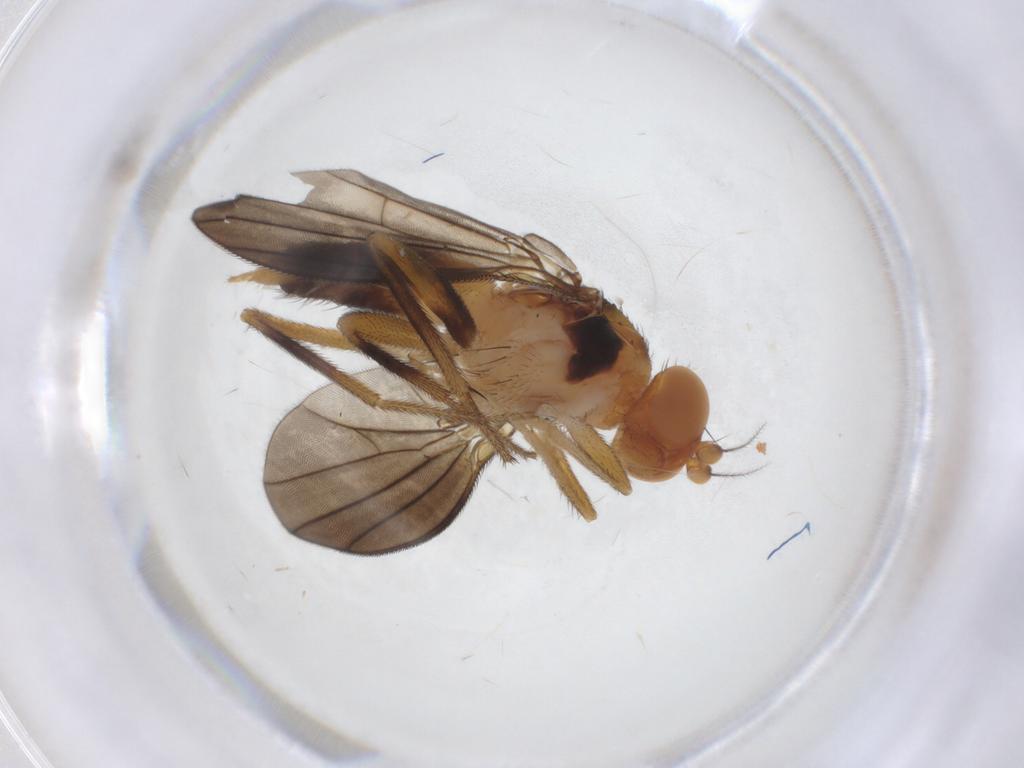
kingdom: Animalia
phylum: Arthropoda
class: Insecta
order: Diptera
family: Clusiidae
